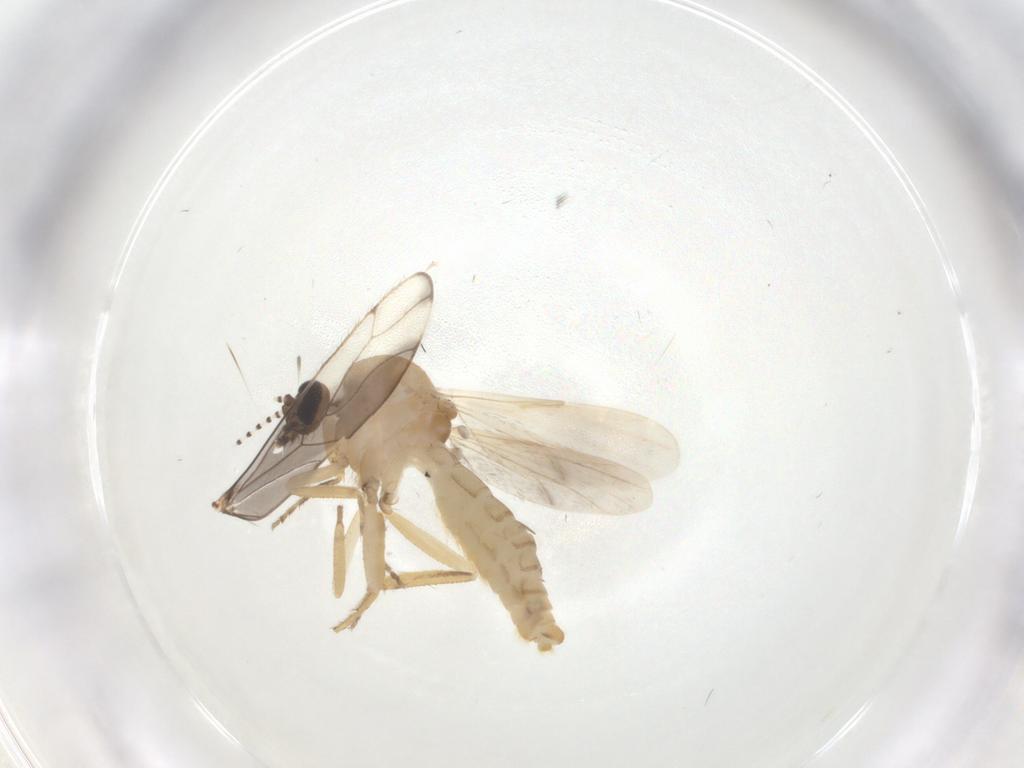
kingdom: Animalia
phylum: Arthropoda
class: Insecta
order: Diptera
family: Ceratopogonidae
